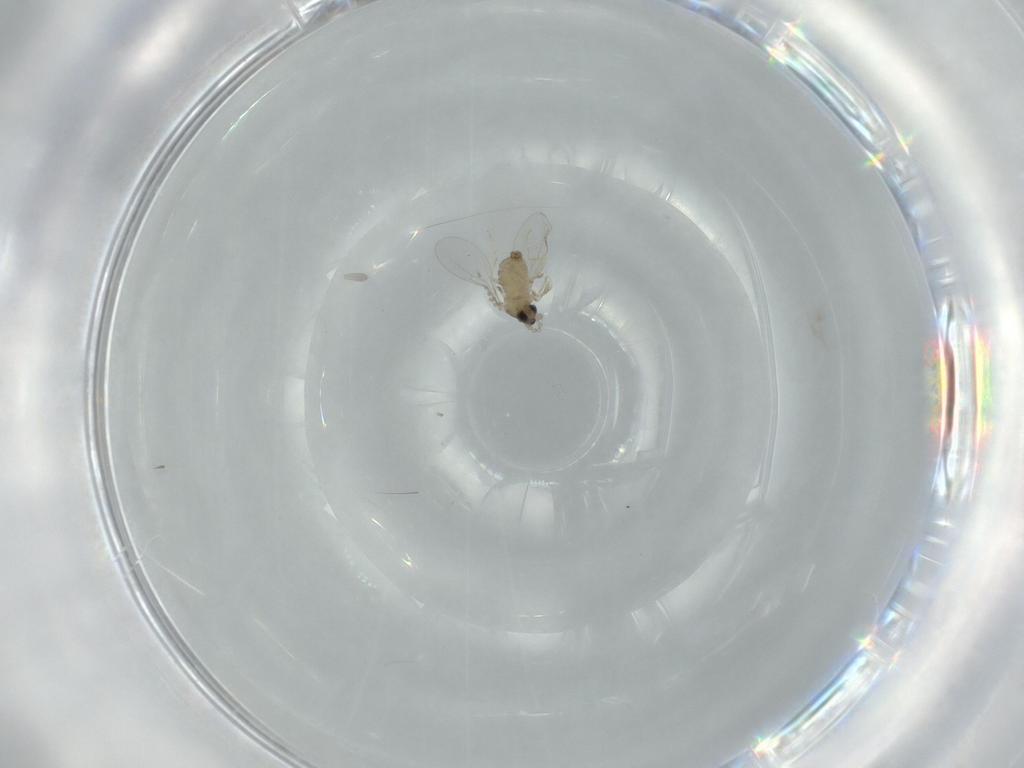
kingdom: Animalia
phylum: Arthropoda
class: Insecta
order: Diptera
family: Cecidomyiidae
